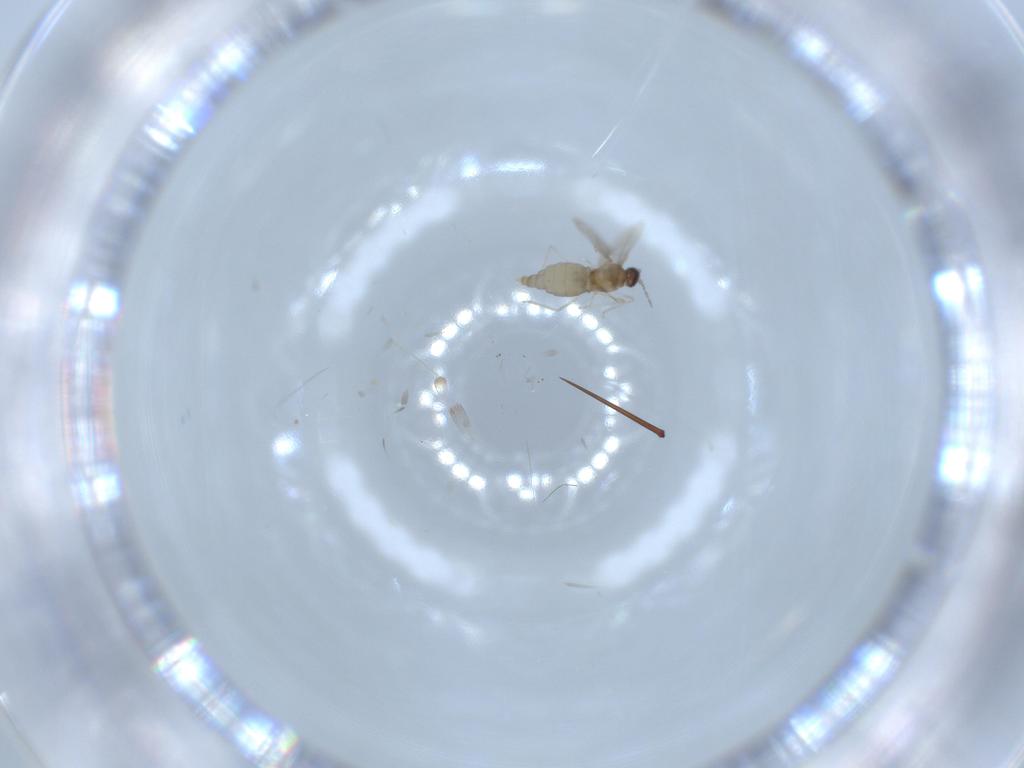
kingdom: Animalia
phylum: Arthropoda
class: Insecta
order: Diptera
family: Cecidomyiidae
